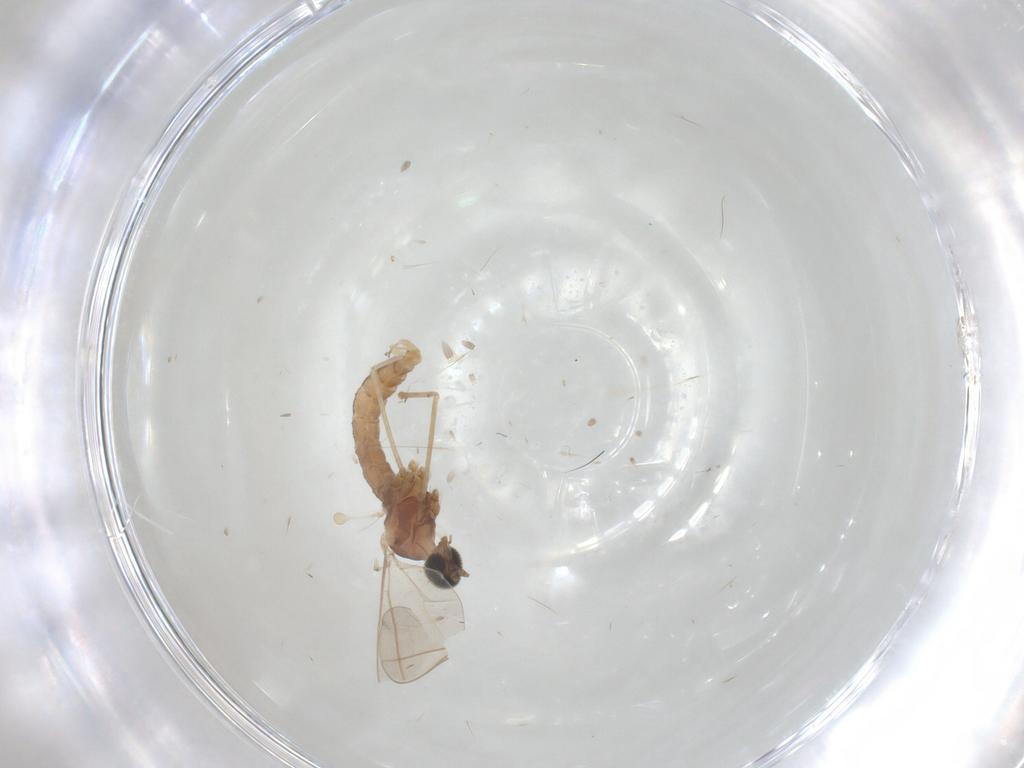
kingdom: Animalia
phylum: Arthropoda
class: Insecta
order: Diptera
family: Cecidomyiidae
